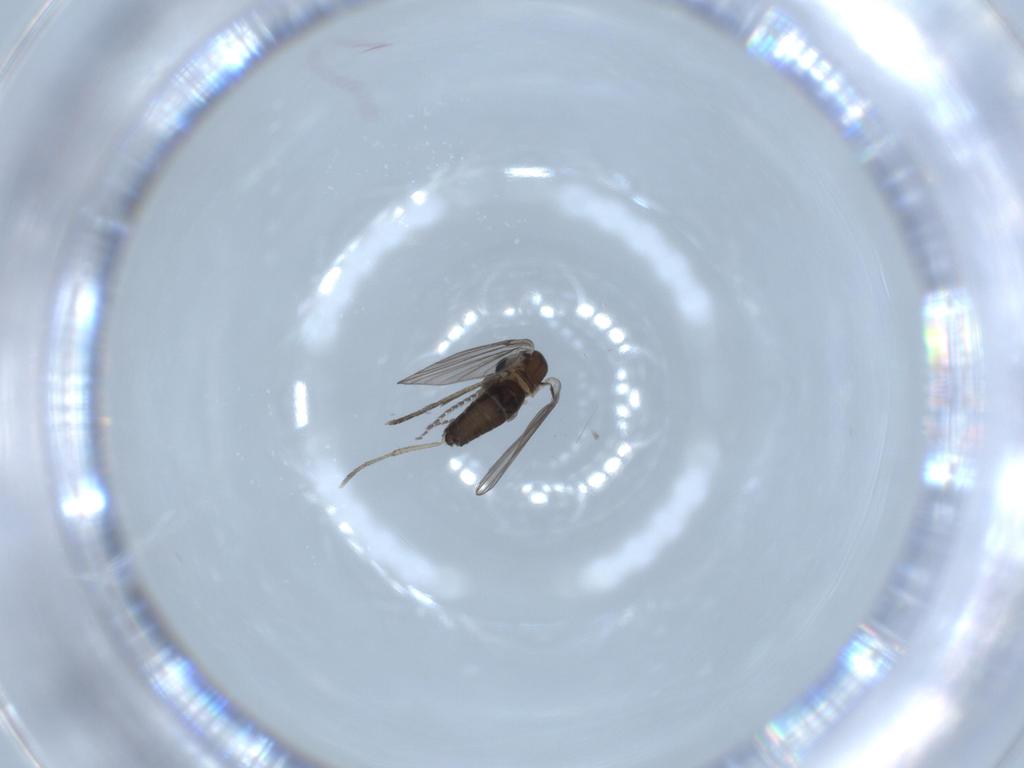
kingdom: Animalia
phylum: Arthropoda
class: Insecta
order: Diptera
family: Psychodidae
